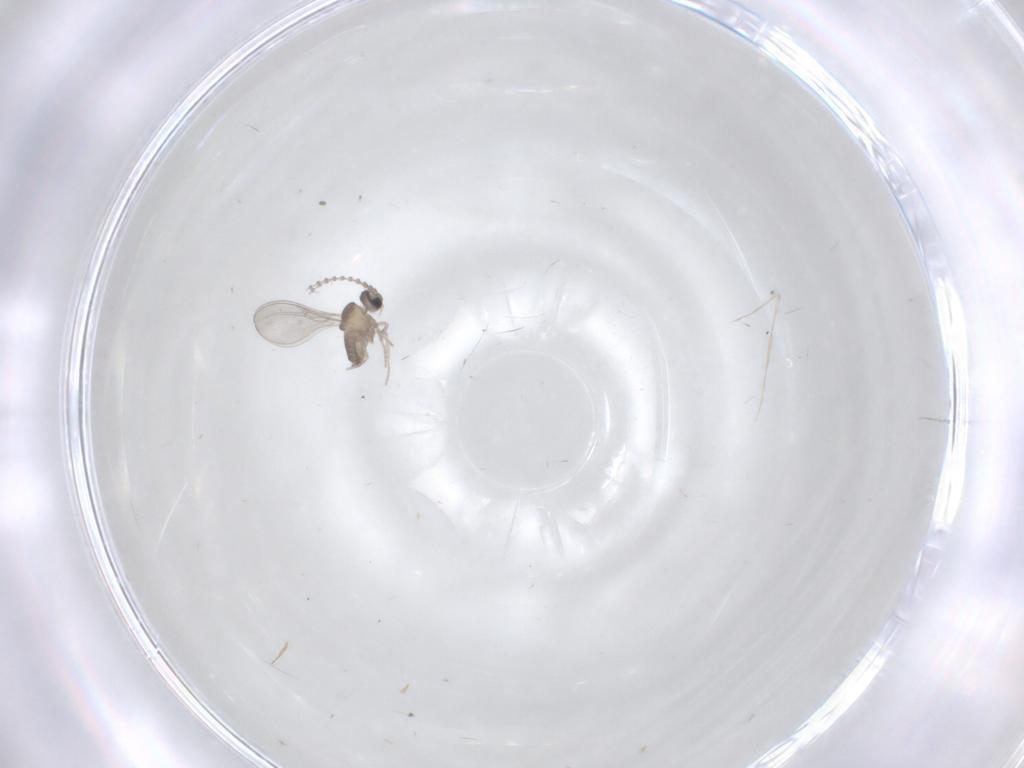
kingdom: Animalia
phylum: Arthropoda
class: Insecta
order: Diptera
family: Cecidomyiidae
